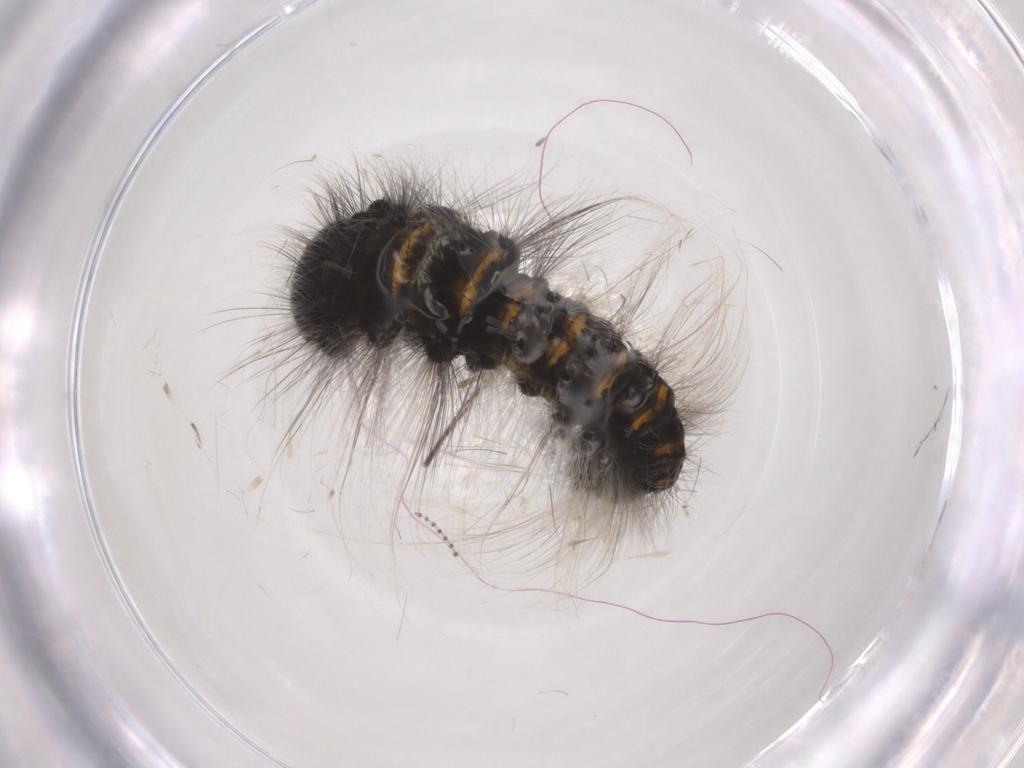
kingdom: Animalia
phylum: Arthropoda
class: Insecta
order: Lepidoptera
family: Lasiocampidae
